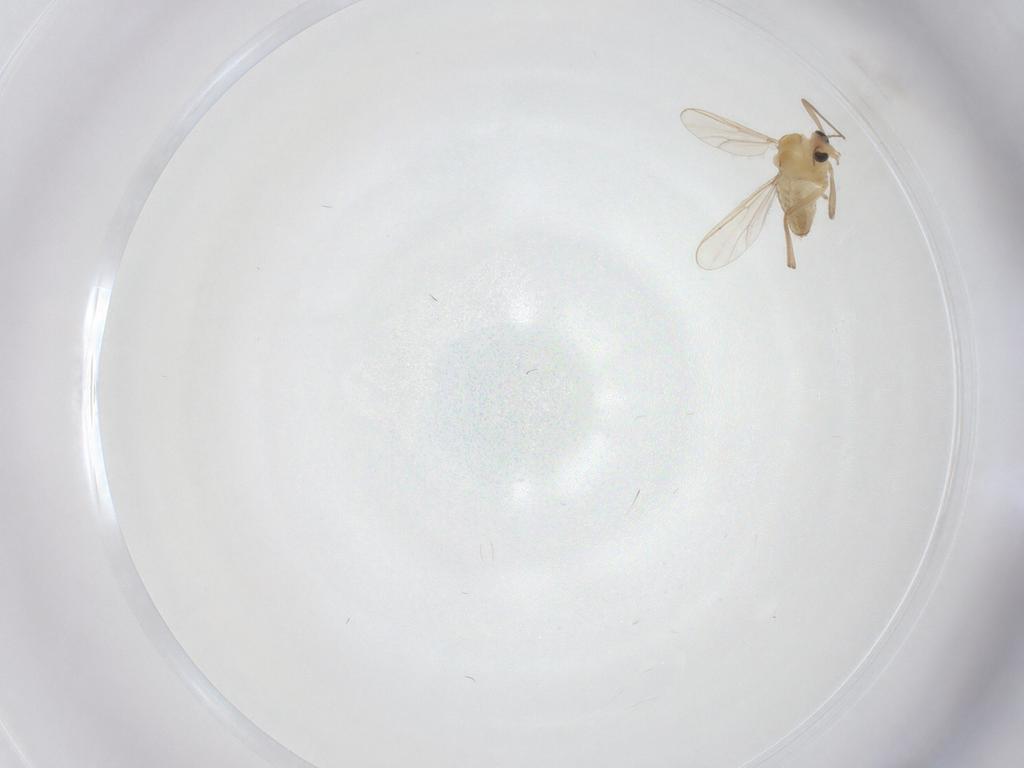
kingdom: Animalia
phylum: Arthropoda
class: Insecta
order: Diptera
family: Chironomidae
